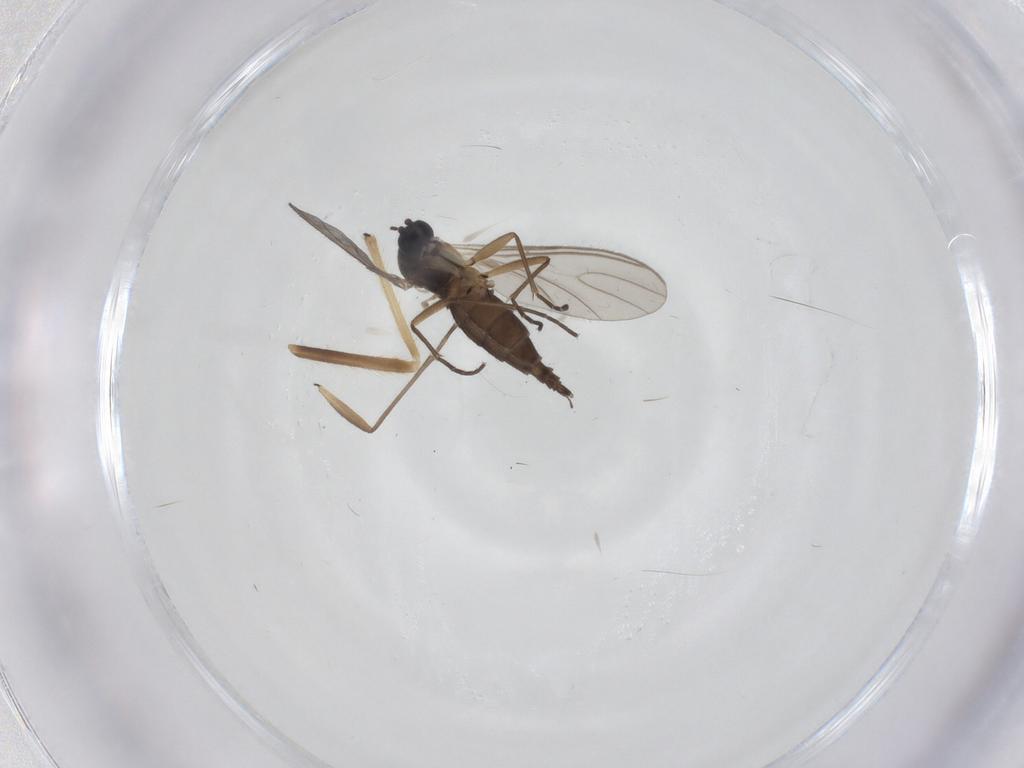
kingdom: Animalia
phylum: Arthropoda
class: Insecta
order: Diptera
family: Sciaridae
